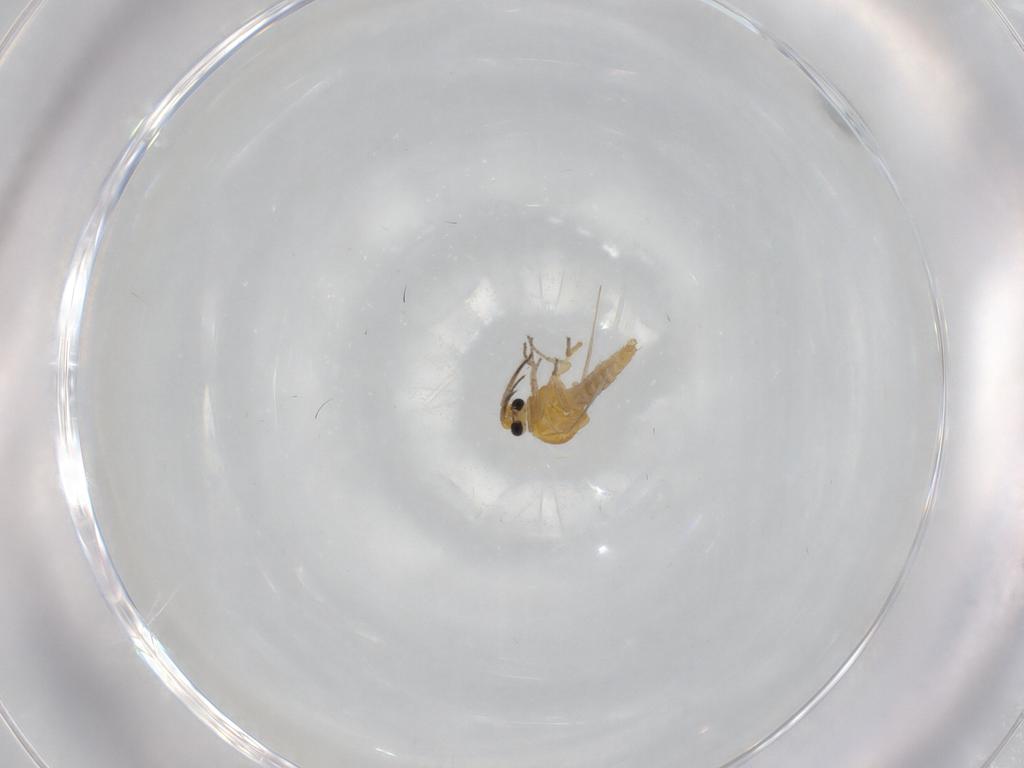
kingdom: Animalia
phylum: Arthropoda
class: Insecta
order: Diptera
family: Ceratopogonidae
